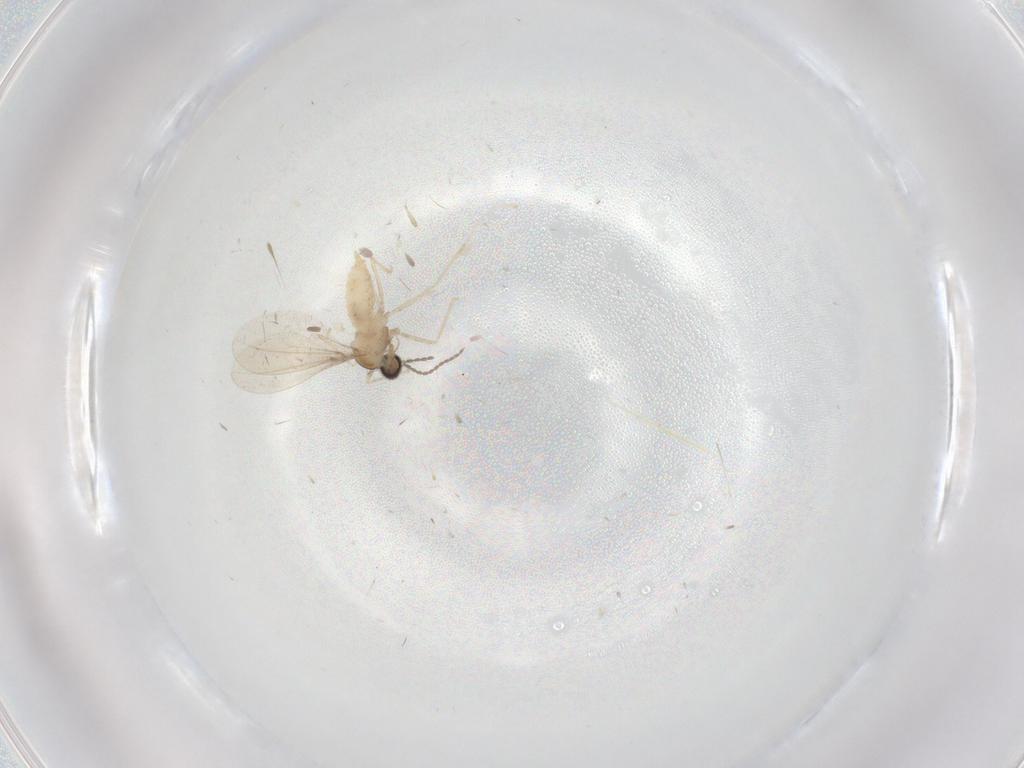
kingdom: Animalia
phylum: Arthropoda
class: Insecta
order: Diptera
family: Cecidomyiidae
